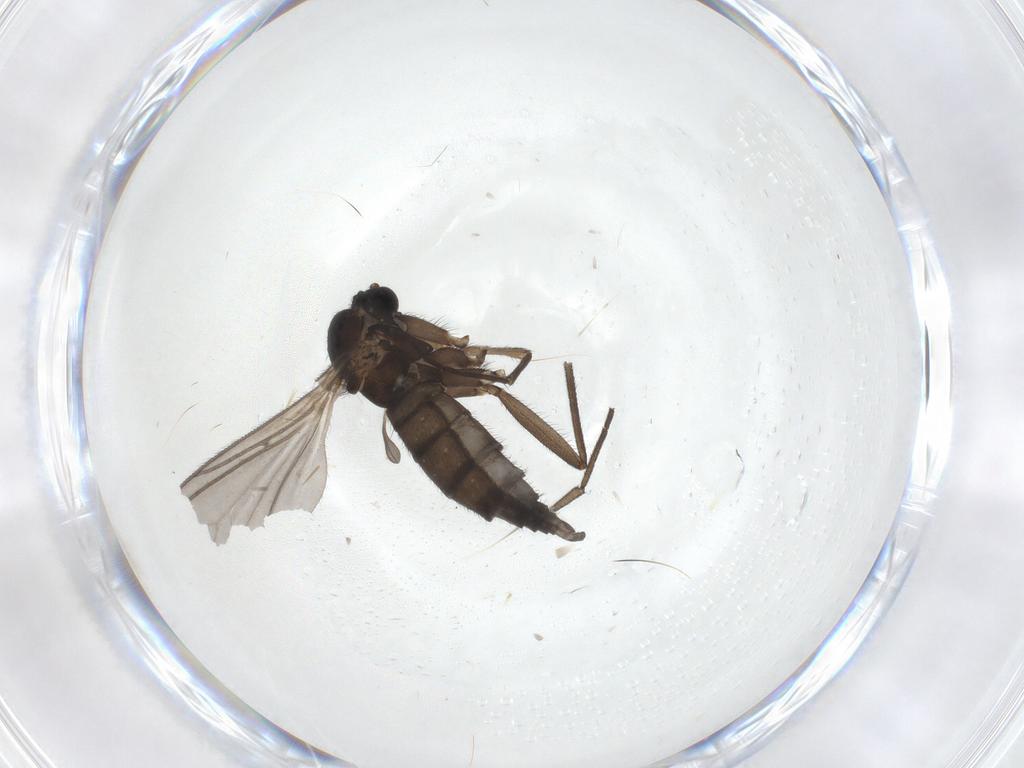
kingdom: Animalia
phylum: Arthropoda
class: Insecta
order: Diptera
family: Sciaridae
